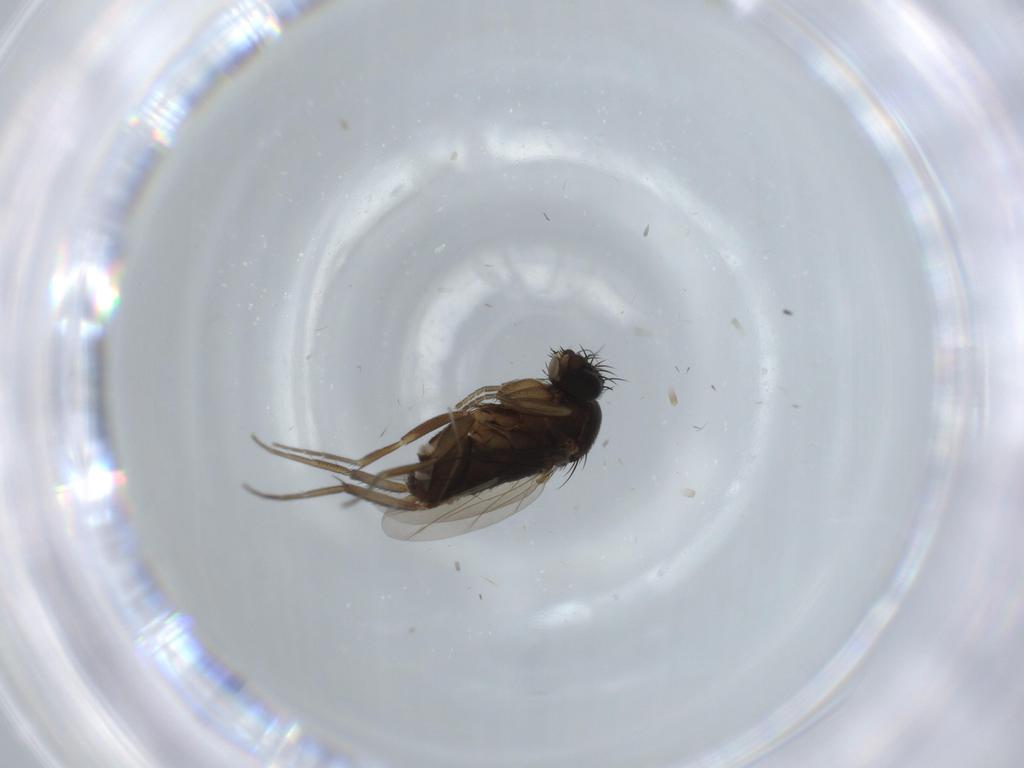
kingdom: Animalia
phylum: Arthropoda
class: Insecta
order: Diptera
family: Phoridae
